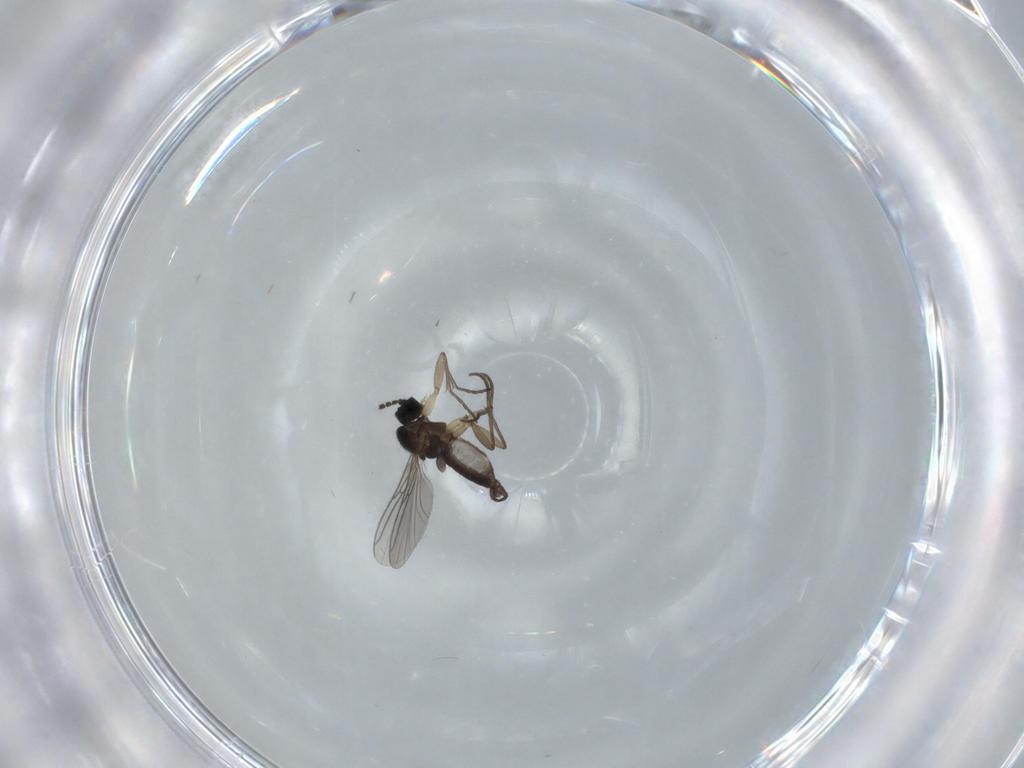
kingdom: Animalia
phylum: Arthropoda
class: Insecta
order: Diptera
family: Sciaridae
